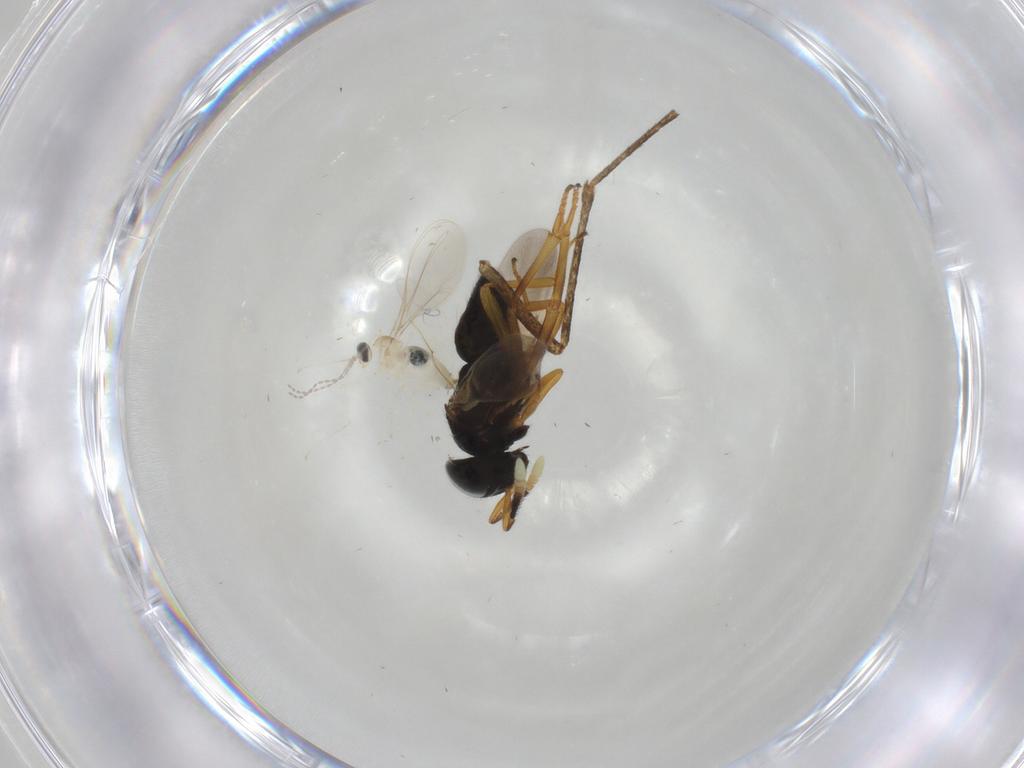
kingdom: Animalia
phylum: Arthropoda
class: Insecta
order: Diptera
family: Culicidae
